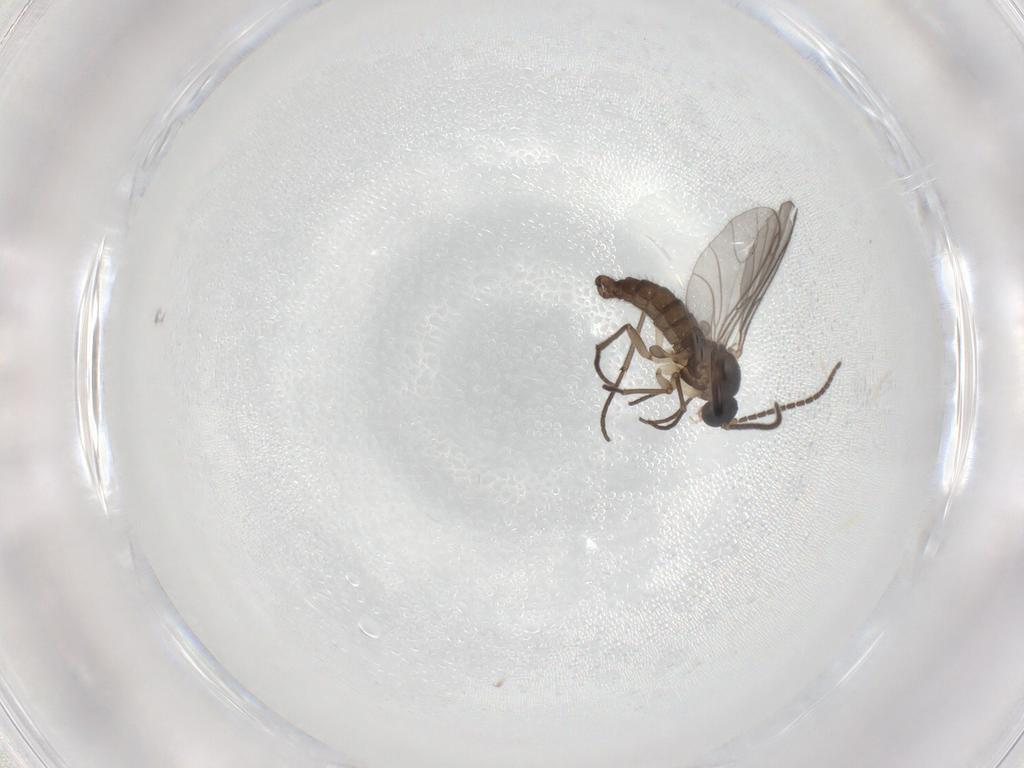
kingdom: Animalia
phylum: Arthropoda
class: Insecta
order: Diptera
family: Sciaridae
